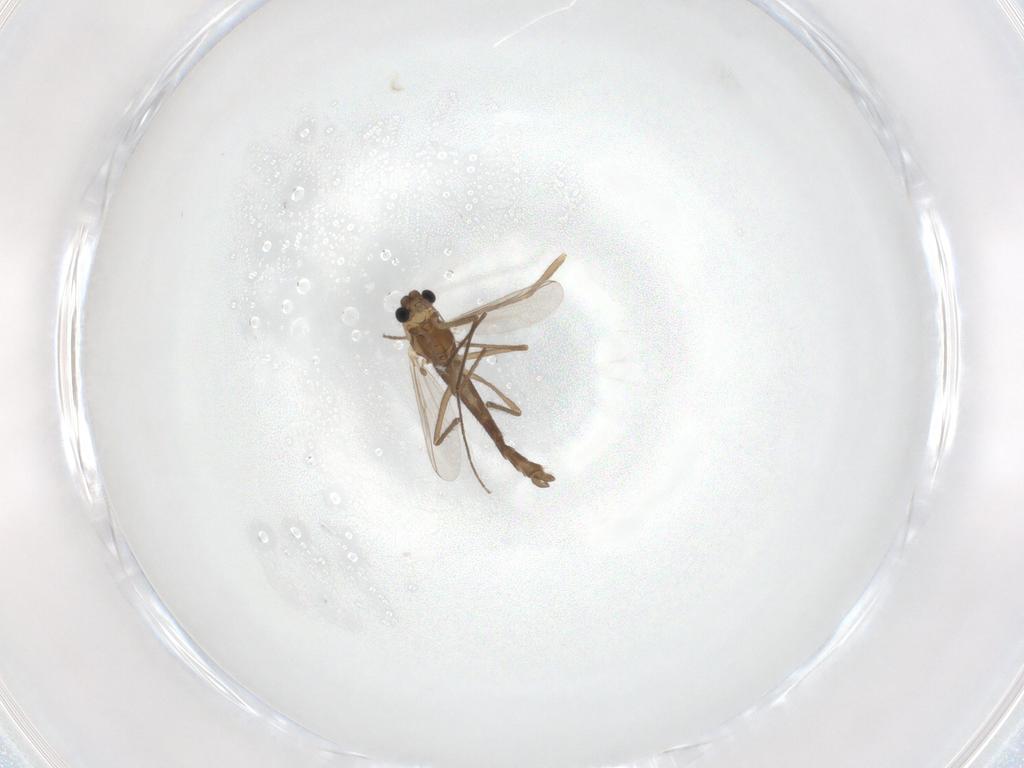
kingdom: Animalia
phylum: Arthropoda
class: Insecta
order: Diptera
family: Chironomidae
